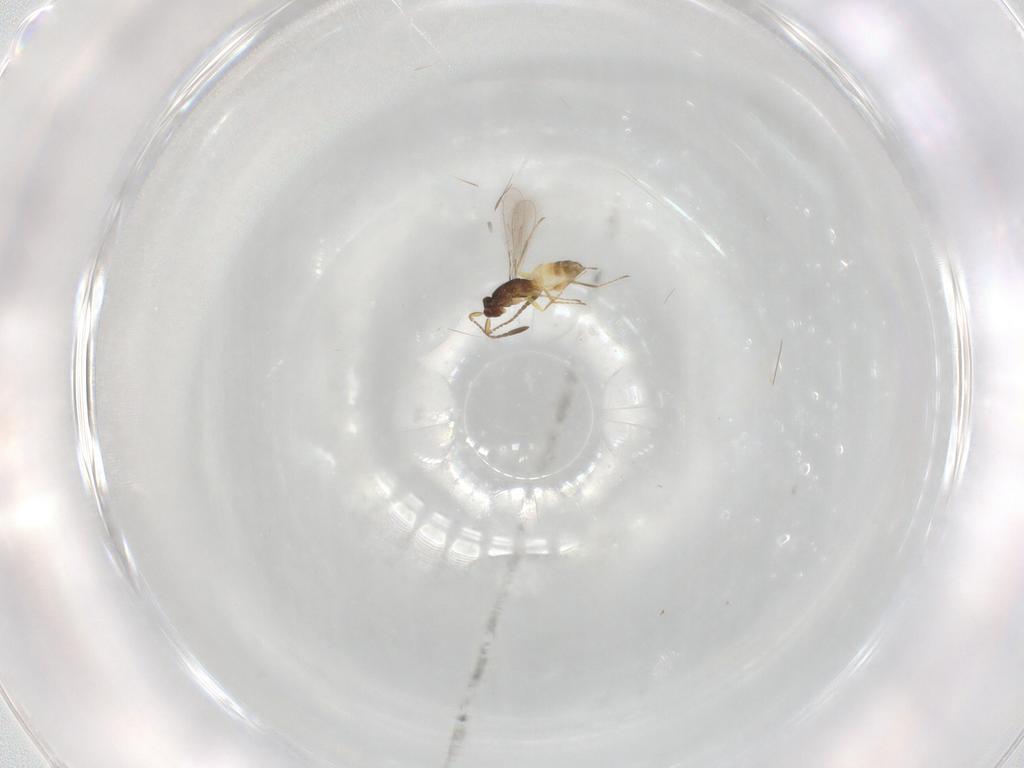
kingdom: Animalia
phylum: Arthropoda
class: Insecta
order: Hymenoptera
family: Mymaridae
